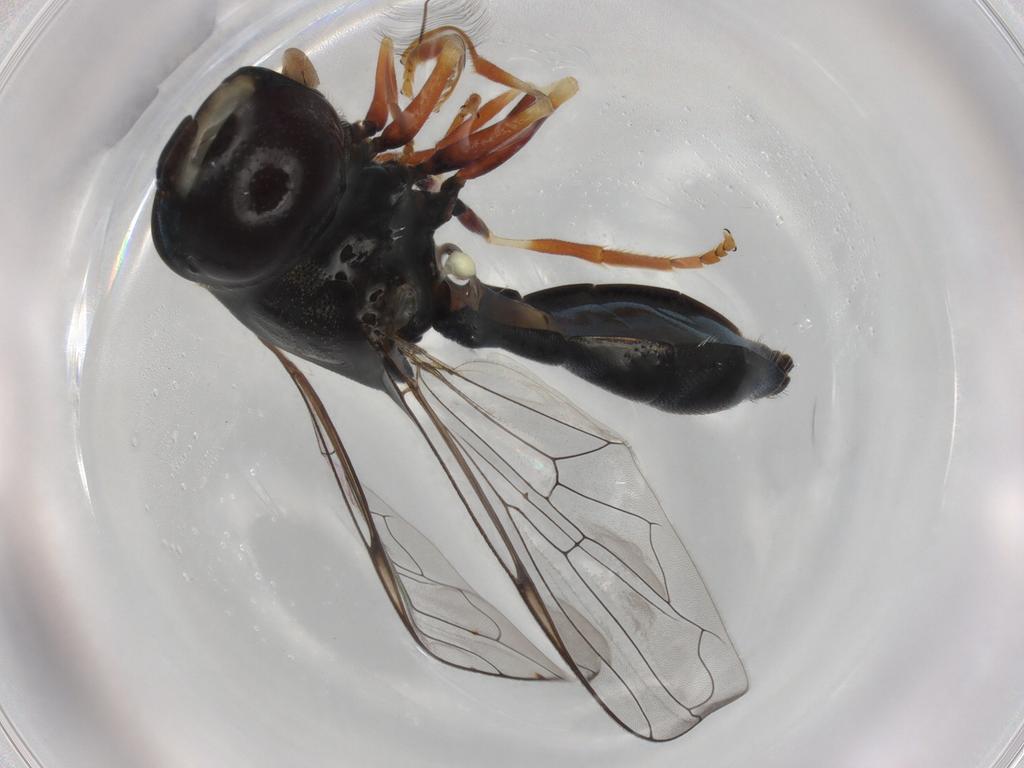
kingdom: Animalia
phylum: Arthropoda
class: Insecta
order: Diptera
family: Syrphidae
